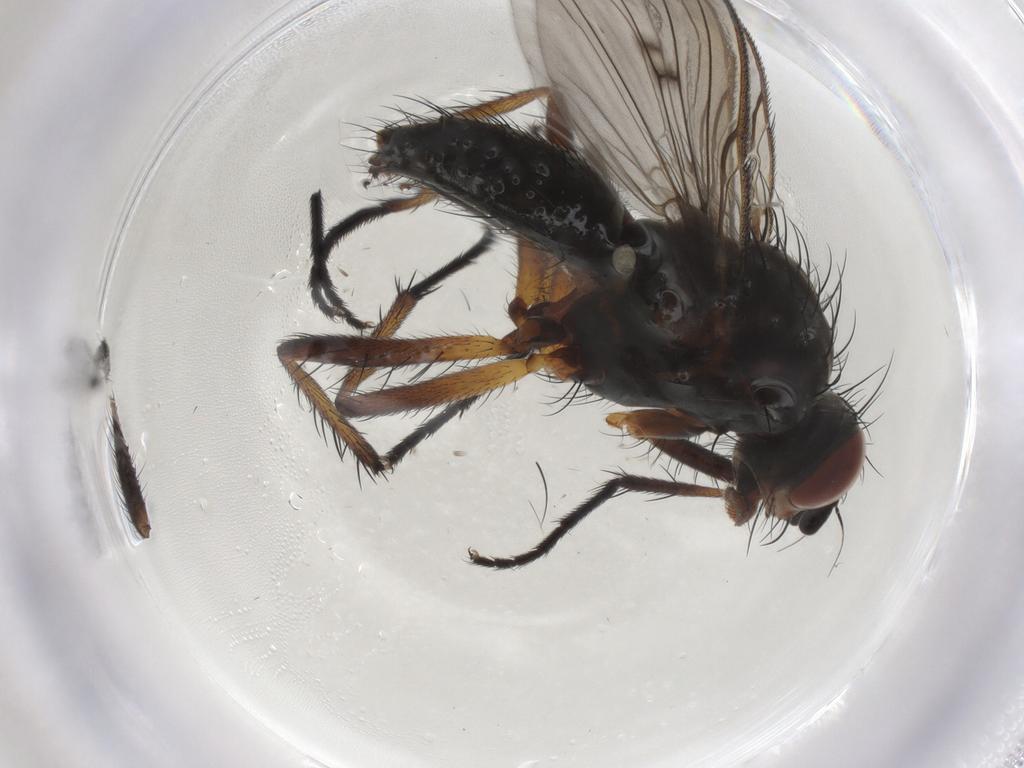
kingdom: Animalia
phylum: Arthropoda
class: Insecta
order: Diptera
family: Anthomyiidae
